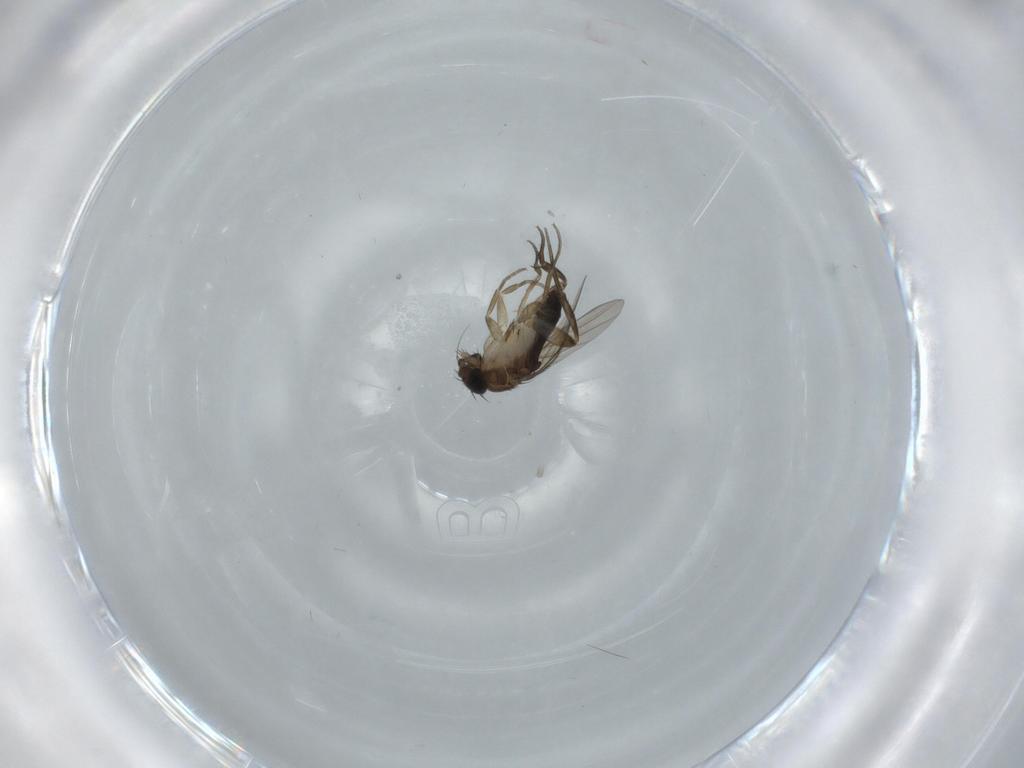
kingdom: Animalia
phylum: Arthropoda
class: Insecta
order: Diptera
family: Phoridae
